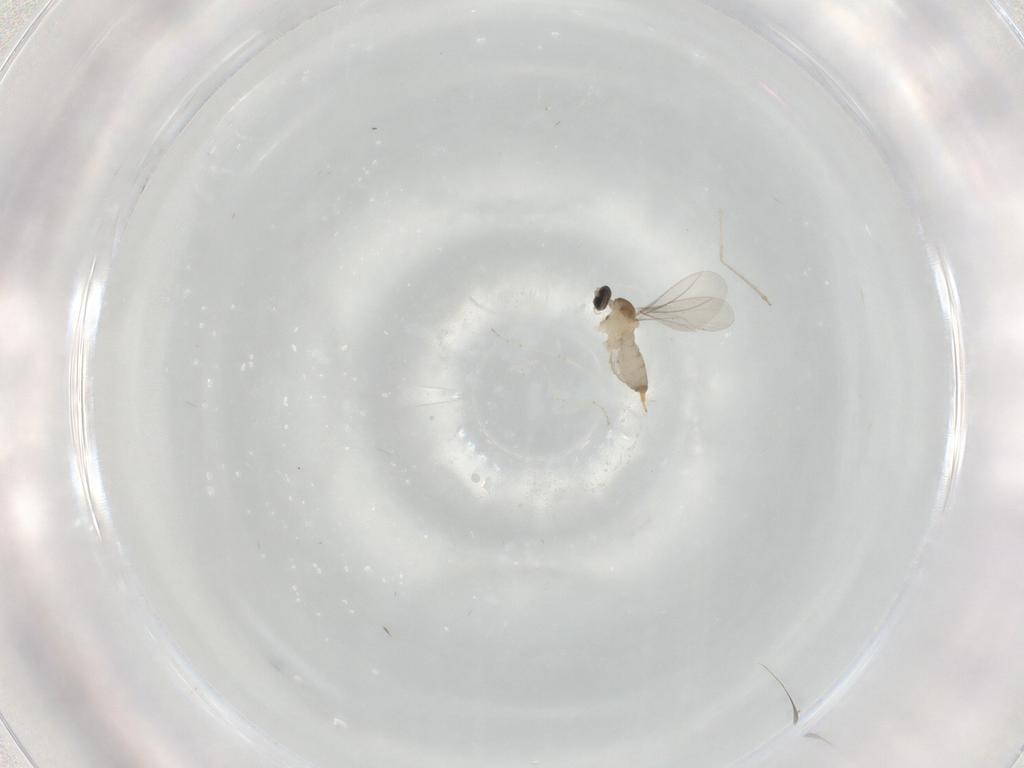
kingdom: Animalia
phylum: Arthropoda
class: Insecta
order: Diptera
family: Cecidomyiidae
